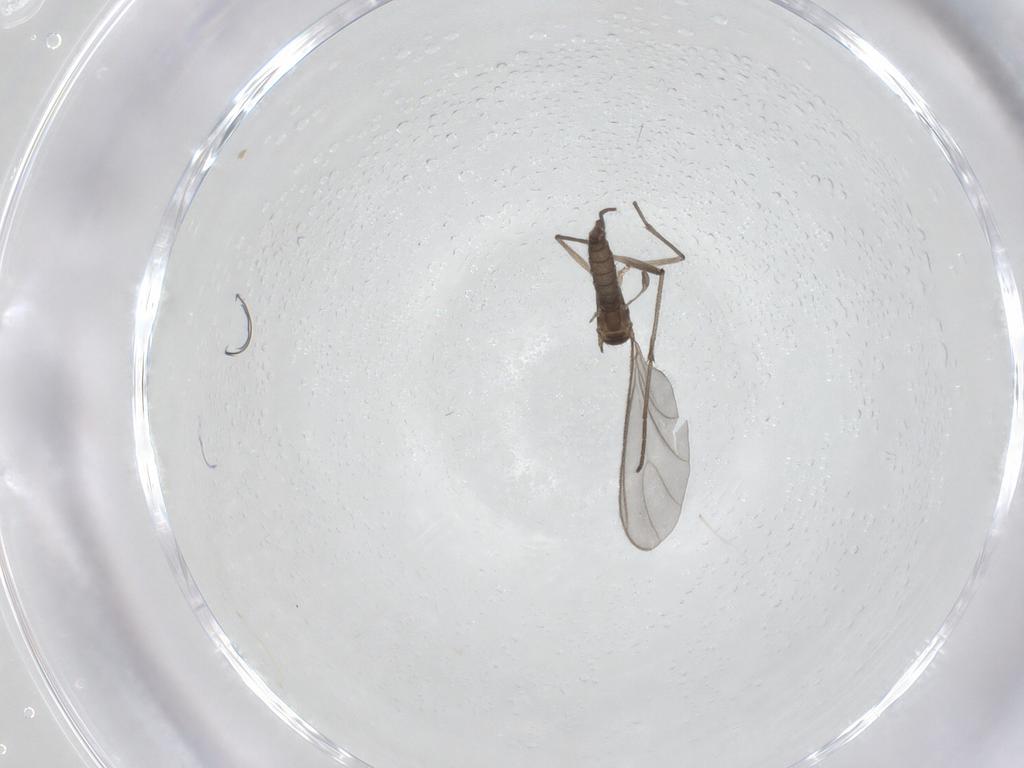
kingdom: Animalia
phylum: Arthropoda
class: Insecta
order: Diptera
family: Sciaridae
